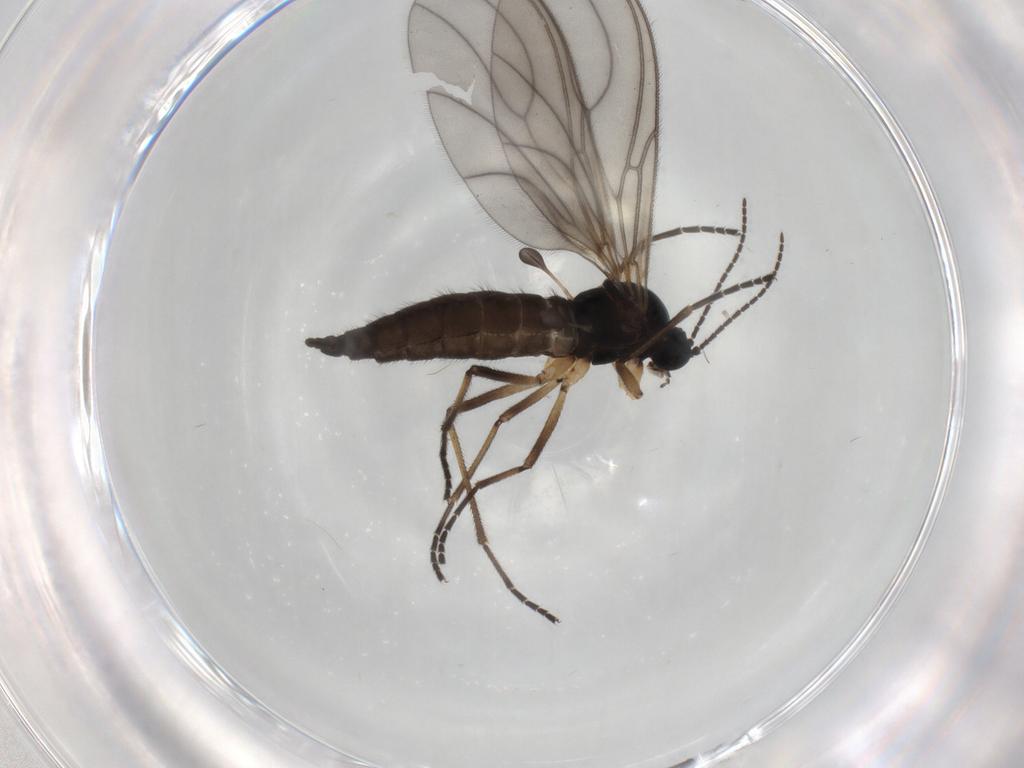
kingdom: Animalia
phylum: Arthropoda
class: Insecta
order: Diptera
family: Sciaridae
